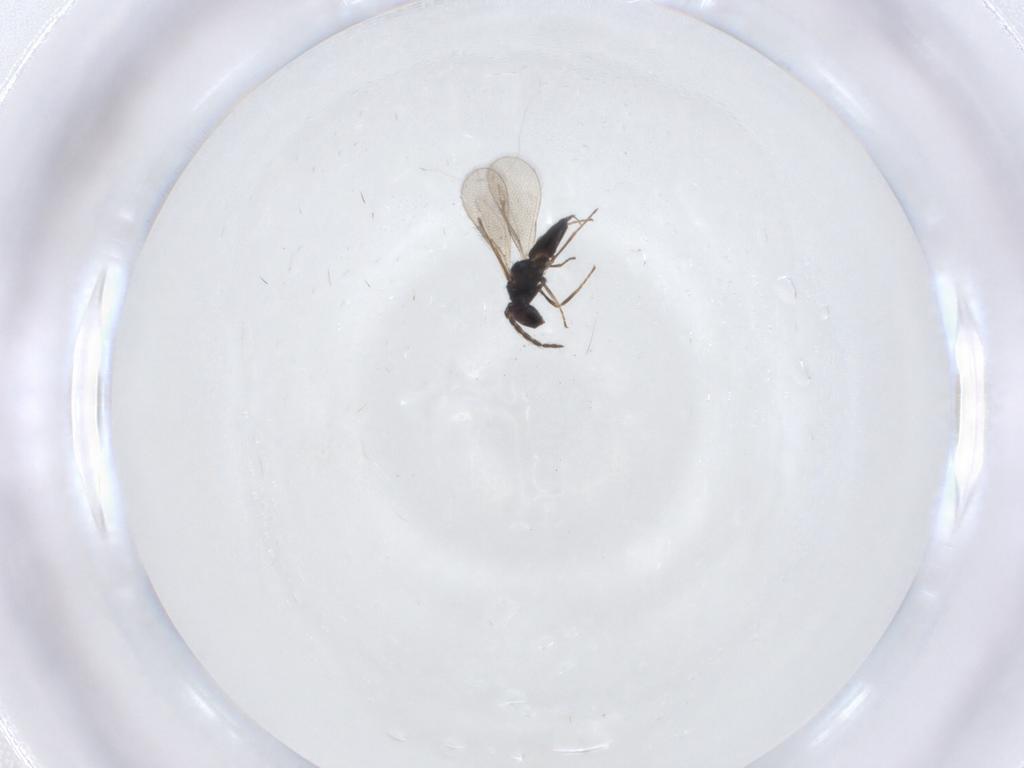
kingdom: Animalia
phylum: Arthropoda
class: Insecta
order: Hymenoptera
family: Eulophidae
